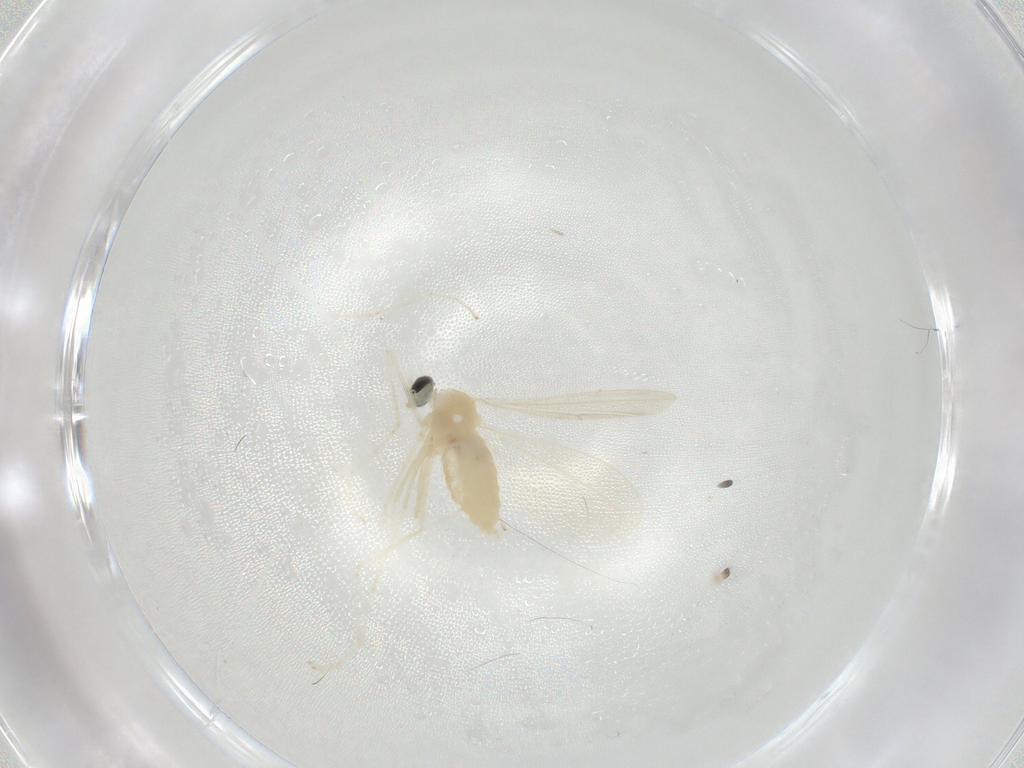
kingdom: Animalia
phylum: Arthropoda
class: Insecta
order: Diptera
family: Cecidomyiidae
